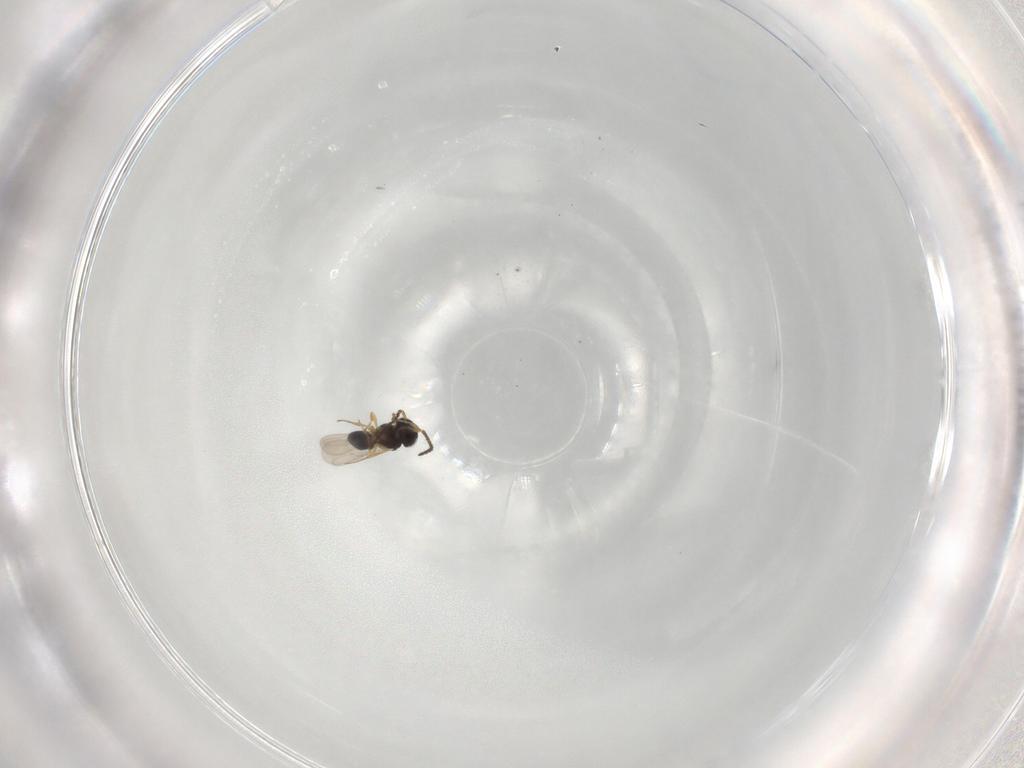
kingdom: Animalia
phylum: Arthropoda
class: Insecta
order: Hymenoptera
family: Scelionidae
